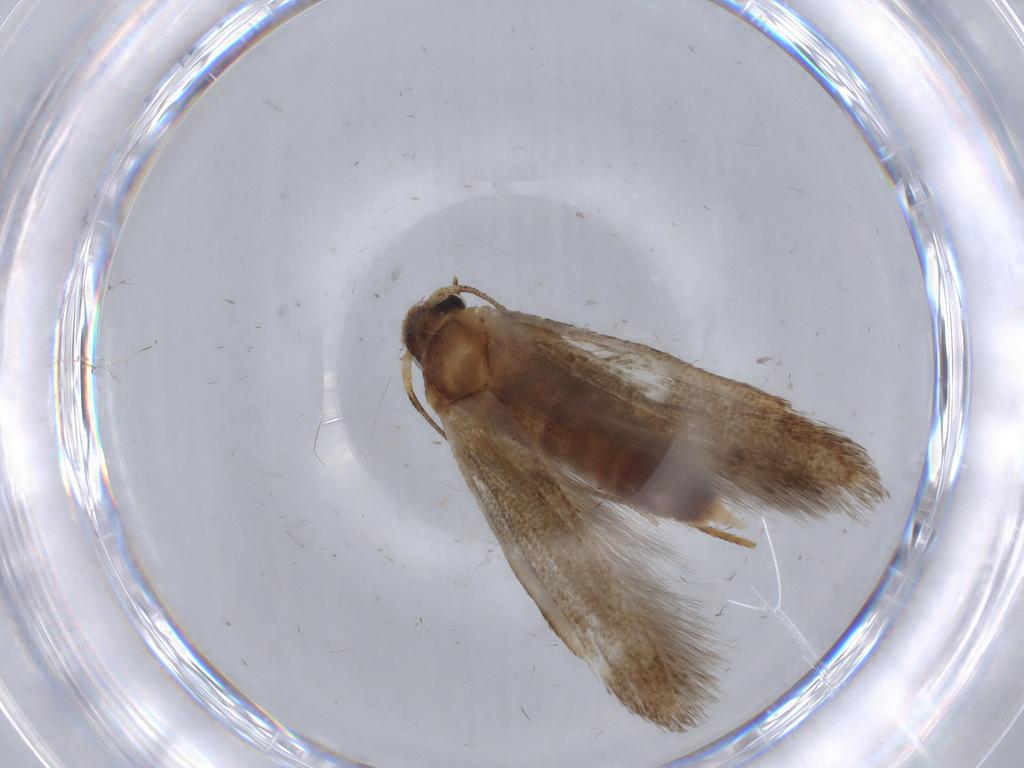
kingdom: Animalia
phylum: Arthropoda
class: Insecta
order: Lepidoptera
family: Blastobasidae
